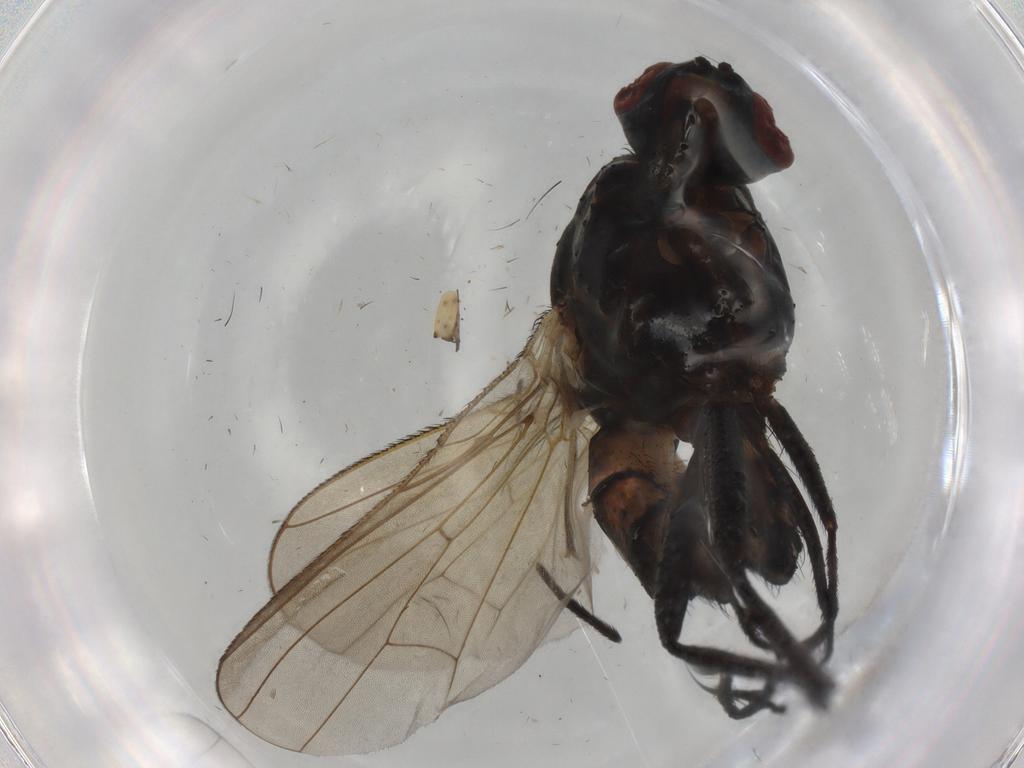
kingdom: Animalia
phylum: Arthropoda
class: Insecta
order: Diptera
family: Anthomyiidae
